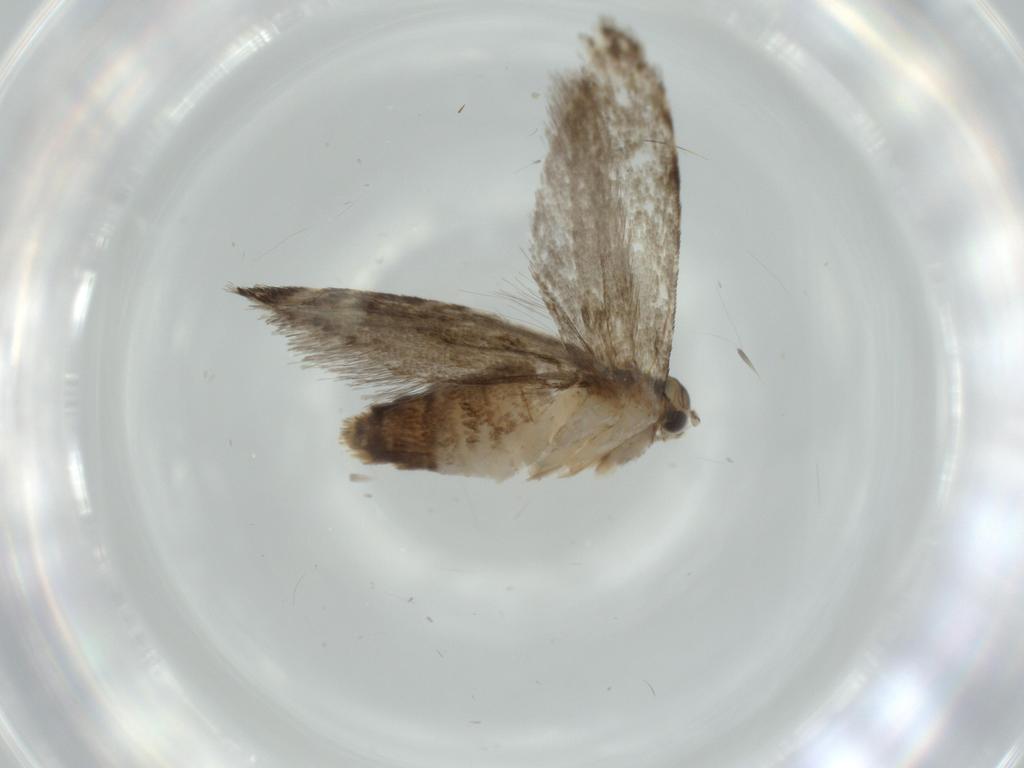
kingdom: Animalia
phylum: Arthropoda
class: Insecta
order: Lepidoptera
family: Tineidae
